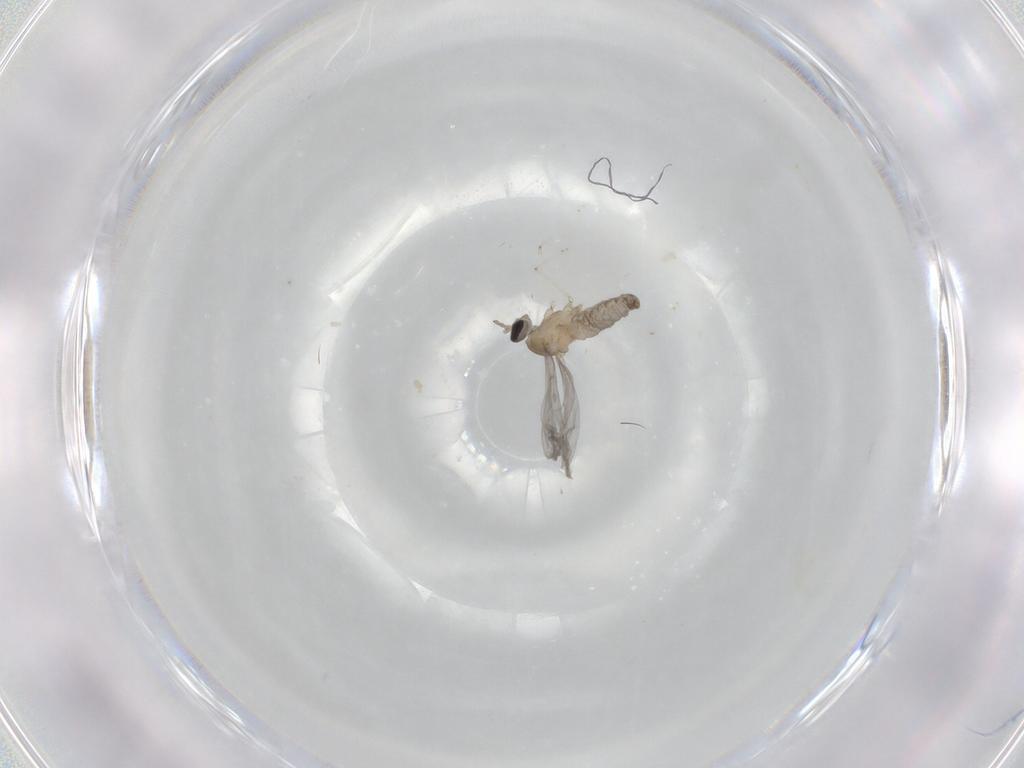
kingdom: Animalia
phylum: Arthropoda
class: Insecta
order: Diptera
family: Cecidomyiidae
